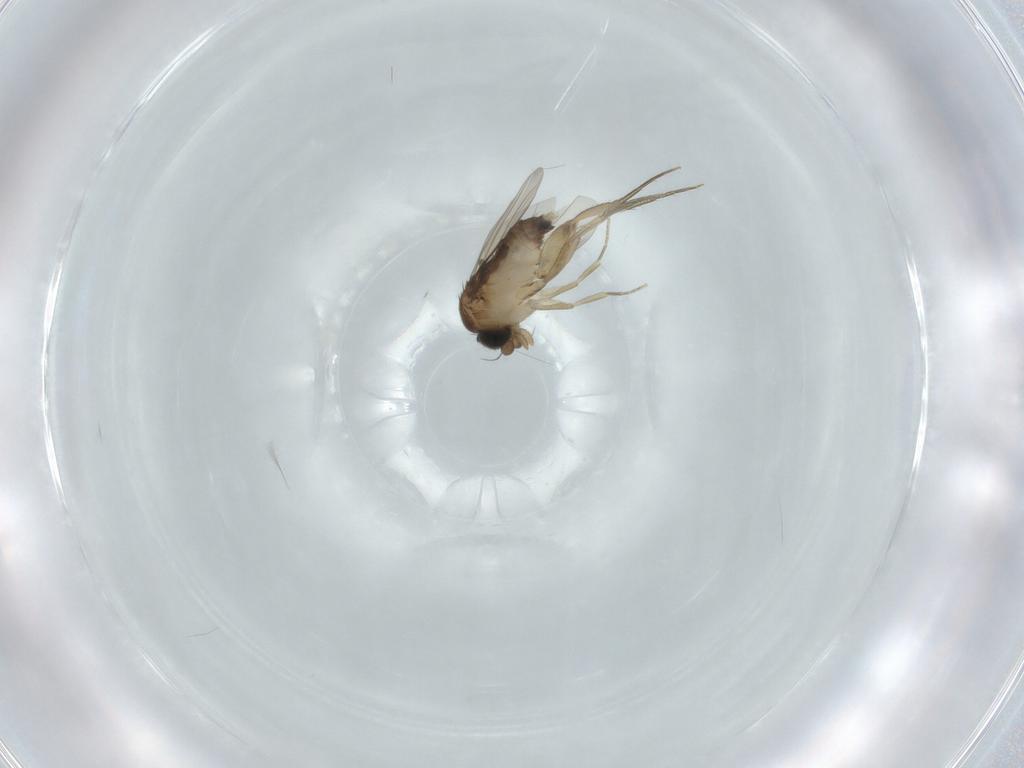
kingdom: Animalia
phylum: Arthropoda
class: Insecta
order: Diptera
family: Phoridae
